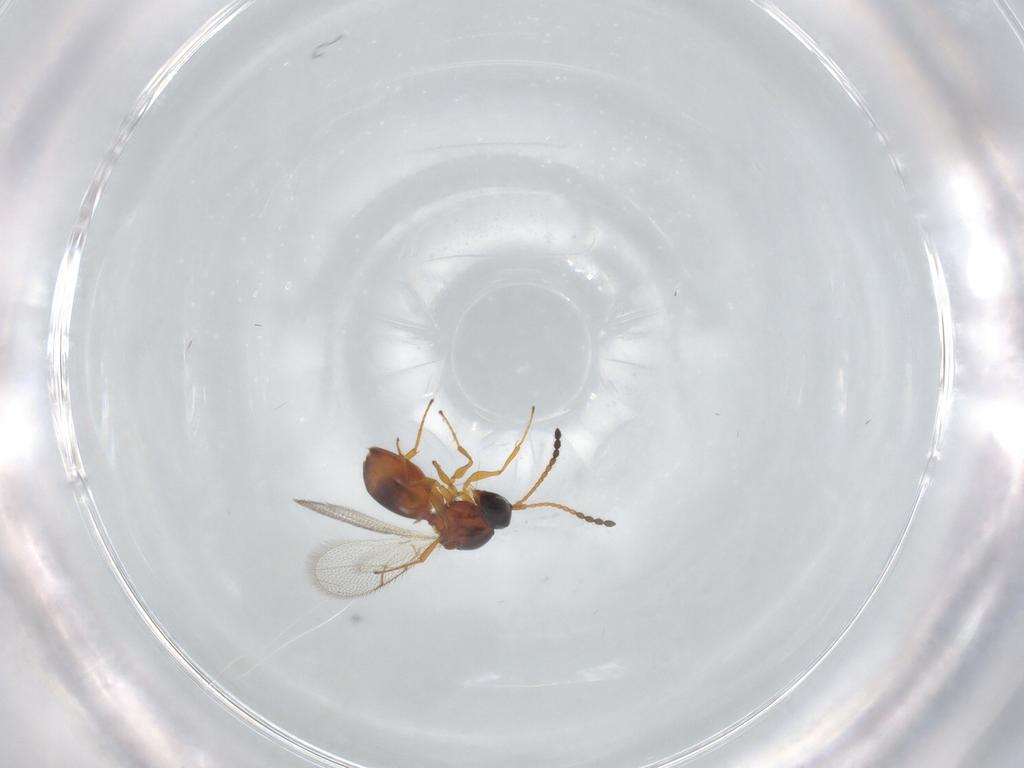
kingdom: Animalia
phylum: Arthropoda
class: Insecta
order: Hymenoptera
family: Figitidae
